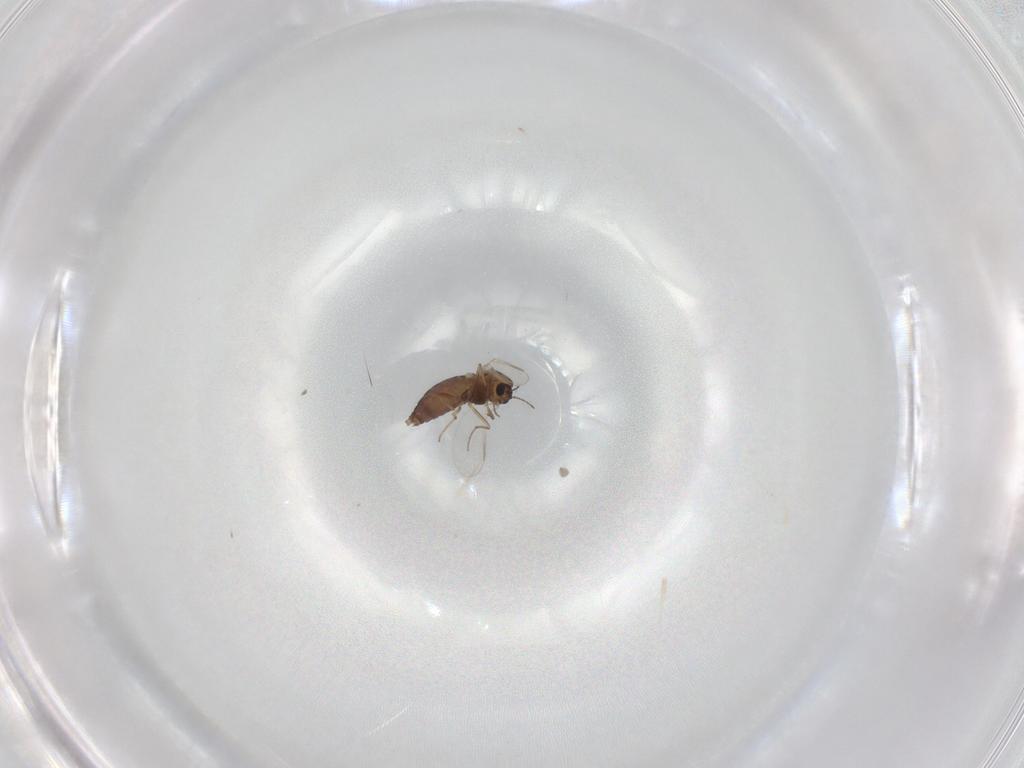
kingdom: Animalia
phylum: Arthropoda
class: Insecta
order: Diptera
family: Chironomidae
